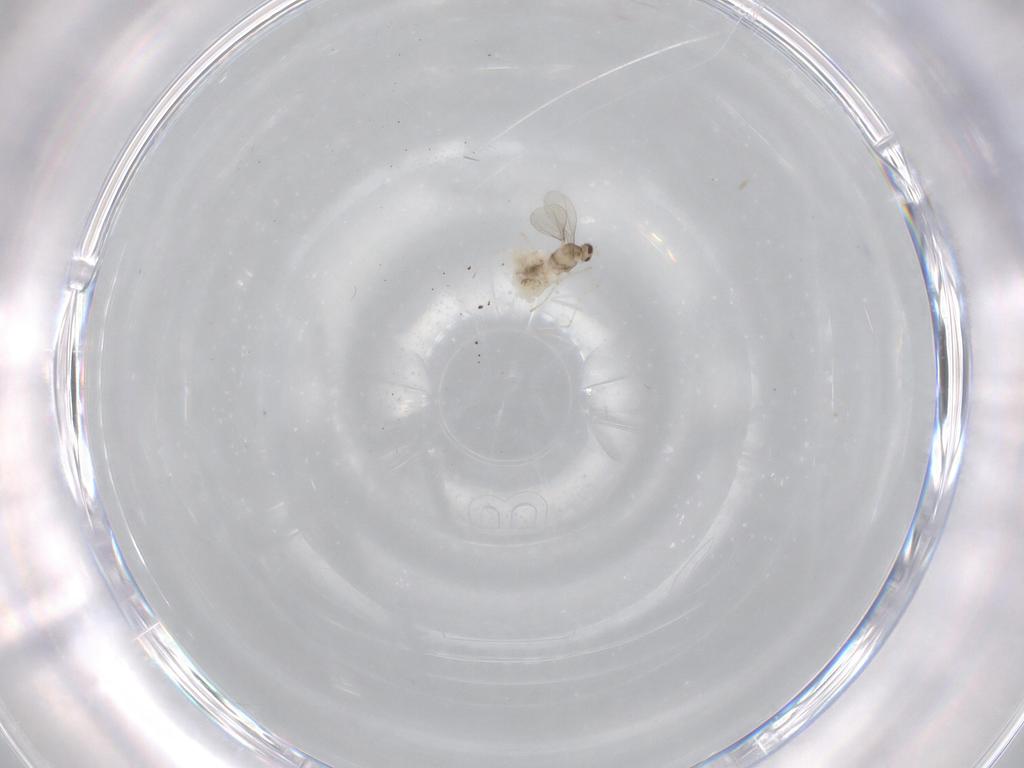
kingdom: Animalia
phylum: Arthropoda
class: Insecta
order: Diptera
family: Cecidomyiidae
